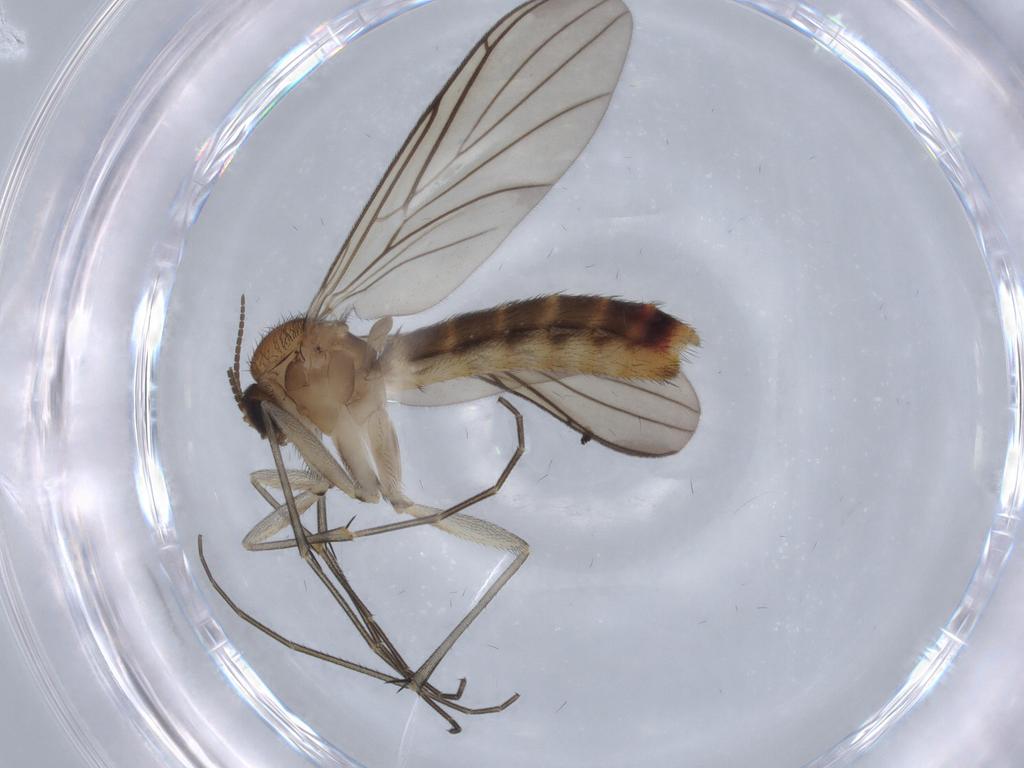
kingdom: Animalia
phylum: Arthropoda
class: Insecta
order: Diptera
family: Keroplatidae
